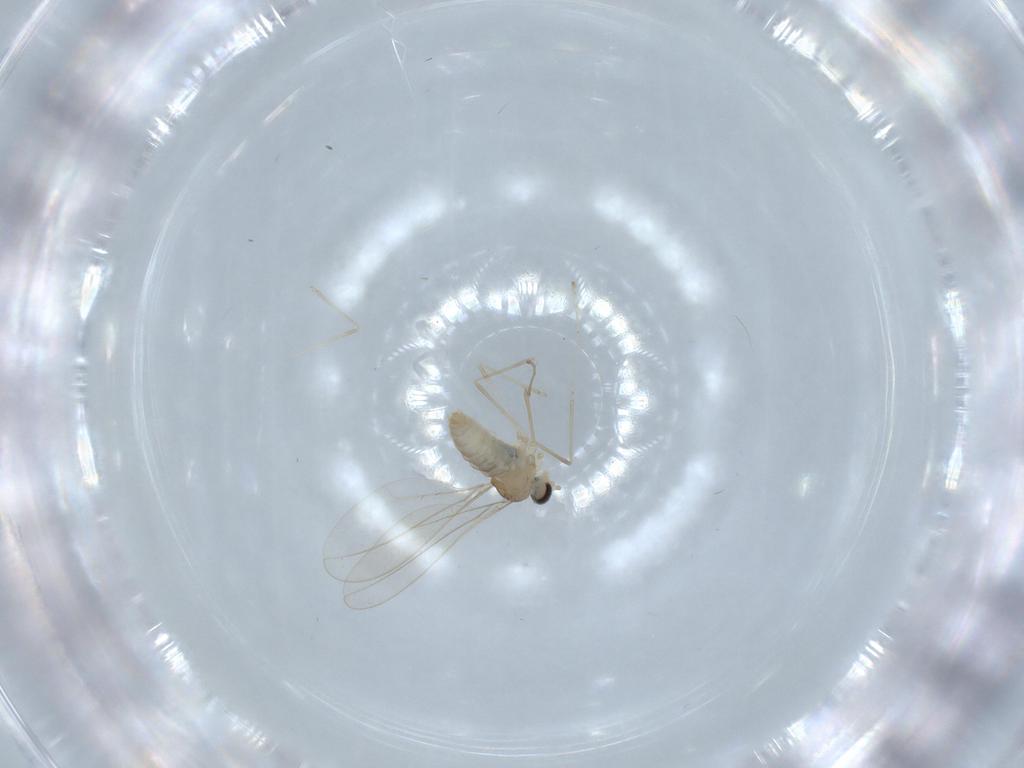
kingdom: Animalia
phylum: Arthropoda
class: Insecta
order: Diptera
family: Cecidomyiidae
